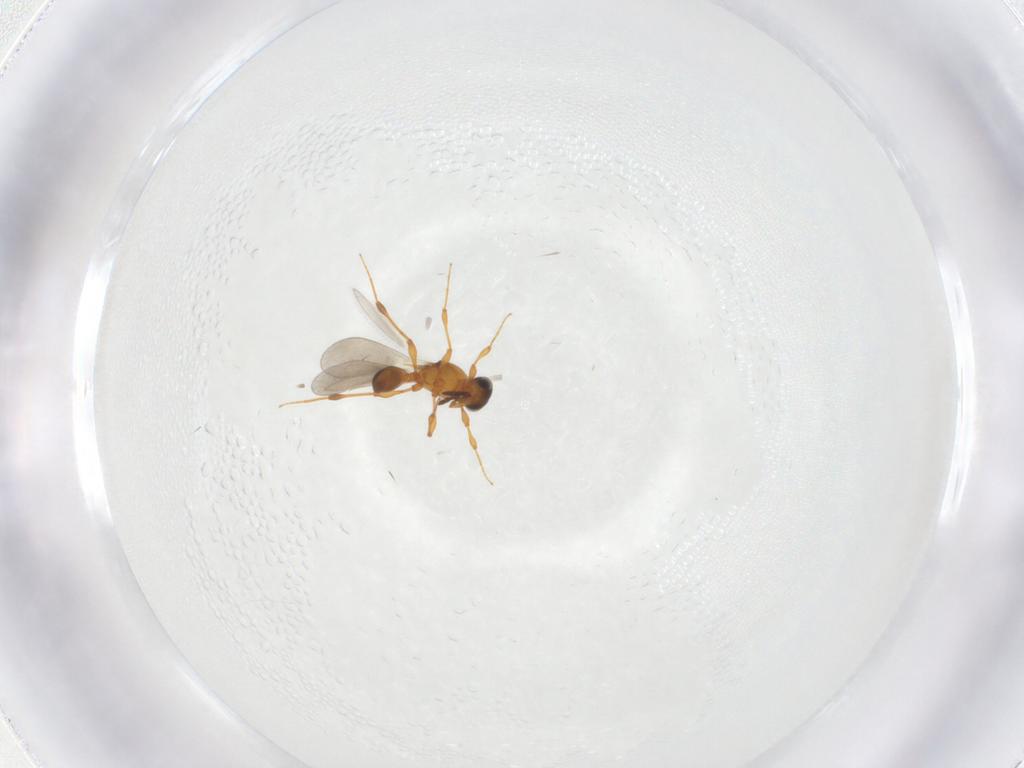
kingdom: Animalia
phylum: Arthropoda
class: Insecta
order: Hymenoptera
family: Platygastridae
